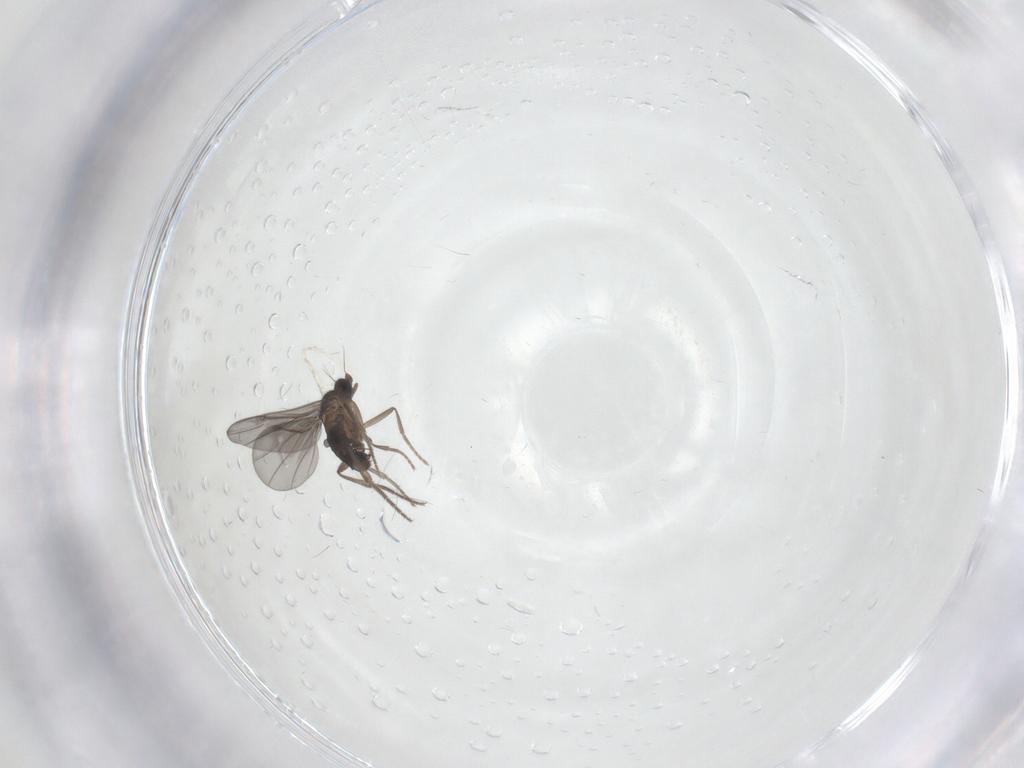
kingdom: Animalia
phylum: Arthropoda
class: Insecta
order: Diptera
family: Phoridae
